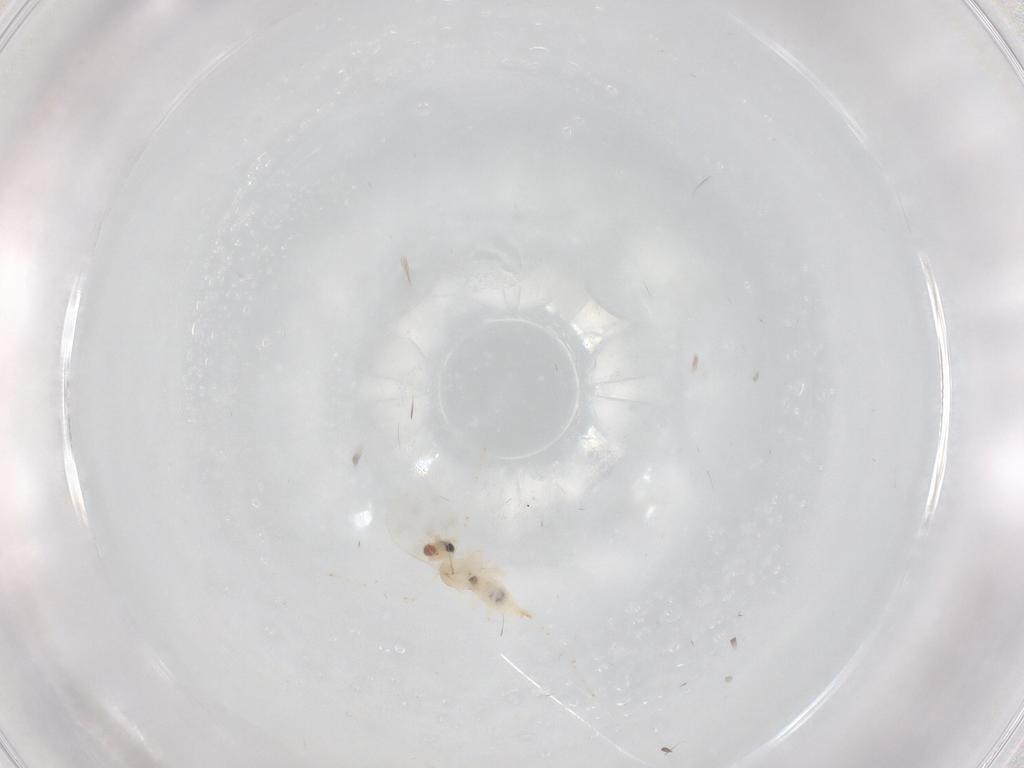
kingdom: Animalia
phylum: Arthropoda
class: Insecta
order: Diptera
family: Cecidomyiidae
